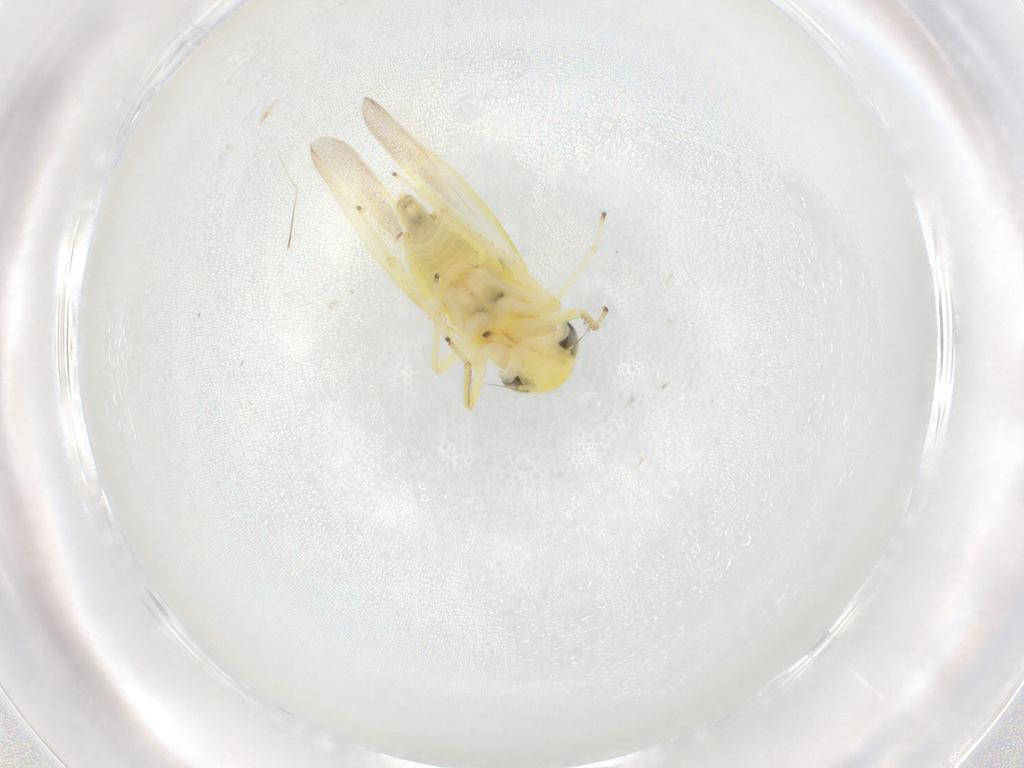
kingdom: Animalia
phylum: Arthropoda
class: Insecta
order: Hemiptera
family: Cicadellidae
